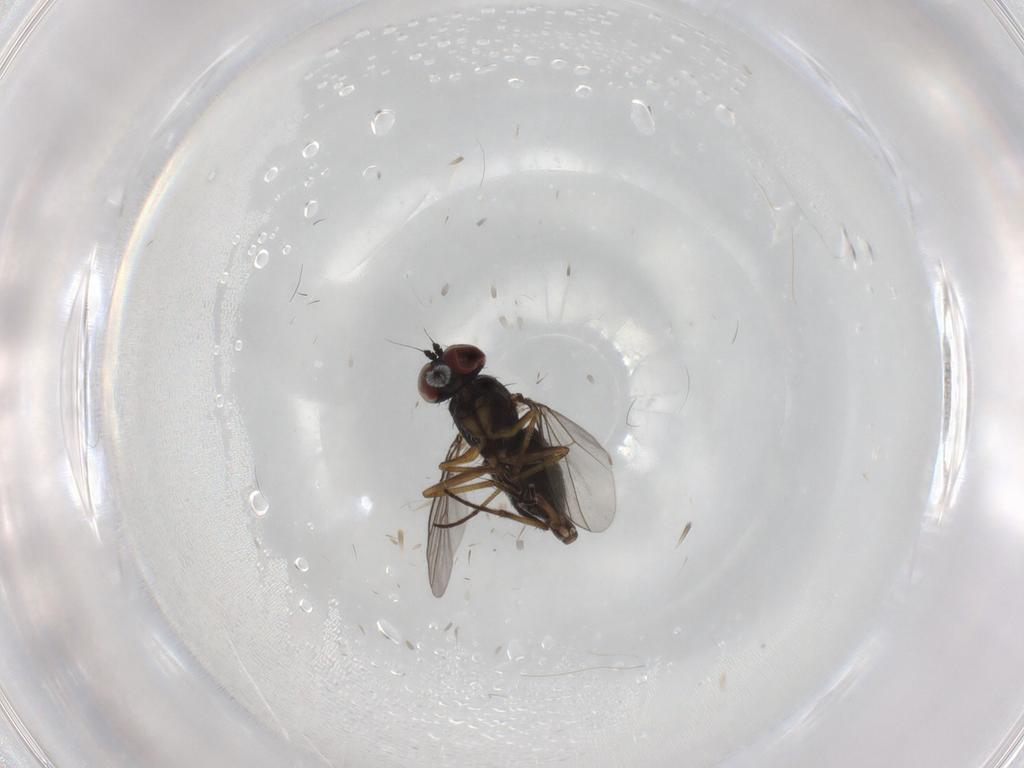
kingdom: Animalia
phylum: Arthropoda
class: Insecta
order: Diptera
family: Dolichopodidae
